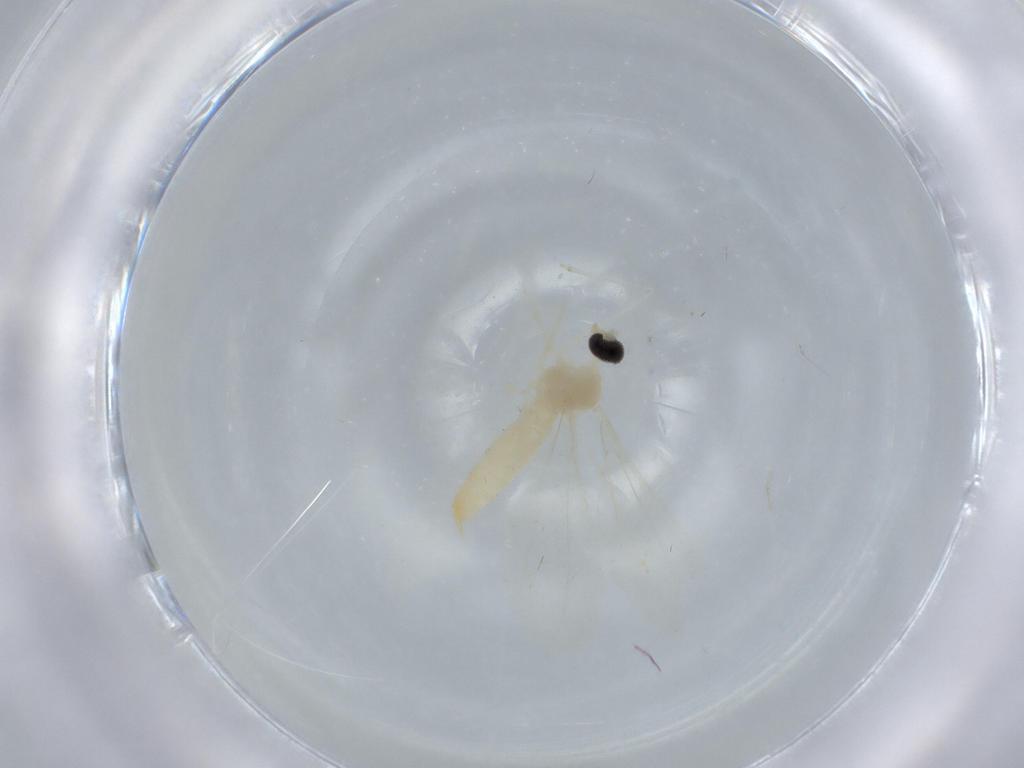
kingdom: Animalia
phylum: Arthropoda
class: Insecta
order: Diptera
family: Cecidomyiidae
